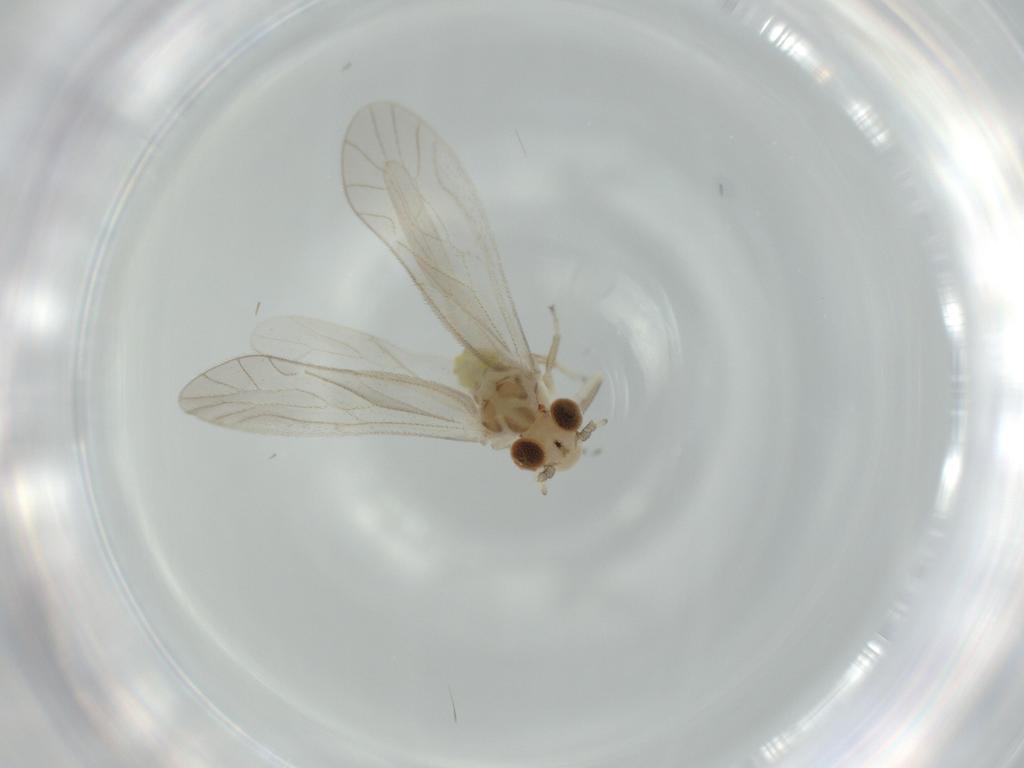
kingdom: Animalia
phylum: Arthropoda
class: Insecta
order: Psocodea
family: Caeciliusidae
